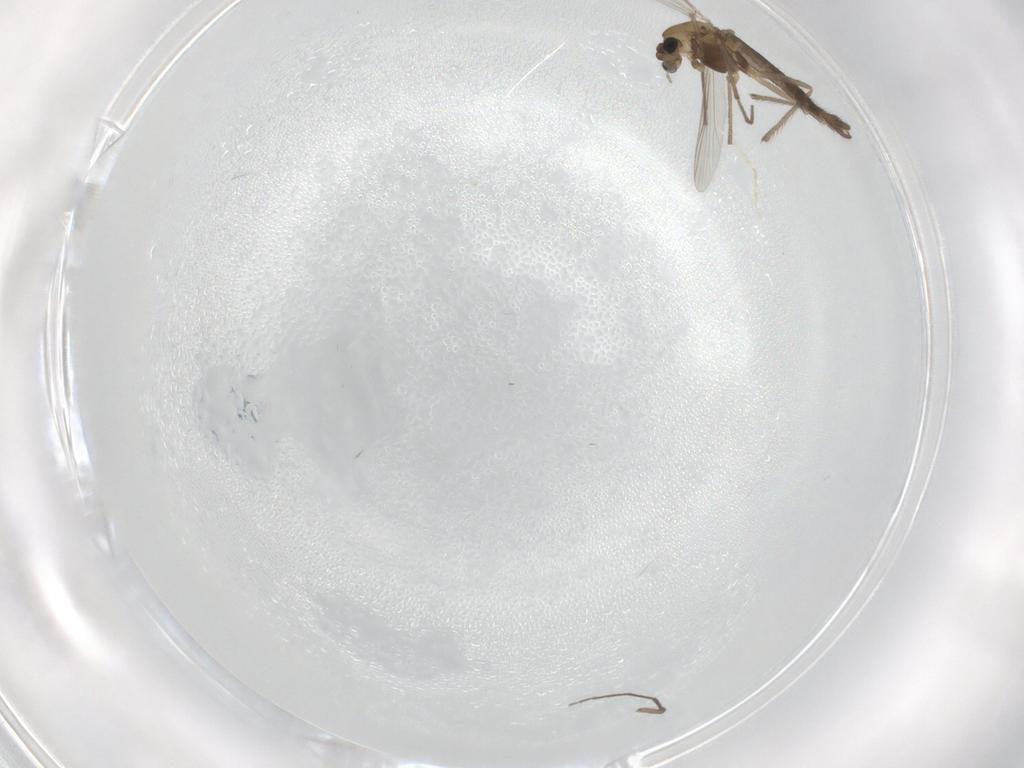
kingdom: Animalia
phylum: Arthropoda
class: Insecta
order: Diptera
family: Chironomidae
